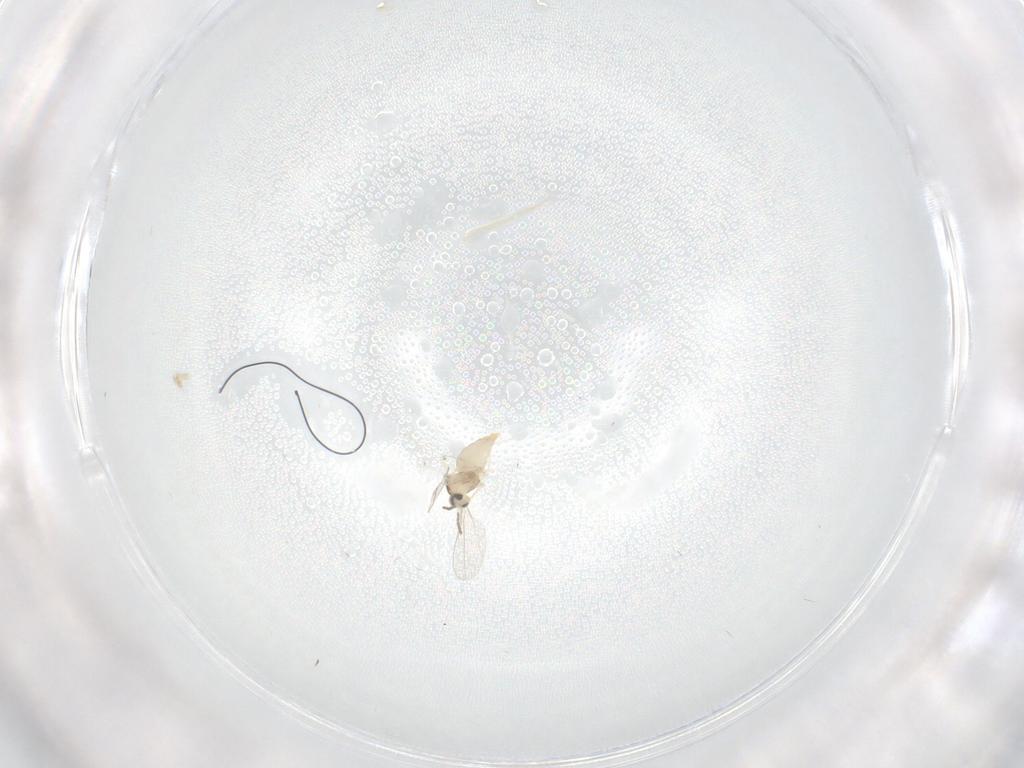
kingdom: Animalia
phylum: Arthropoda
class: Insecta
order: Diptera
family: Cecidomyiidae
